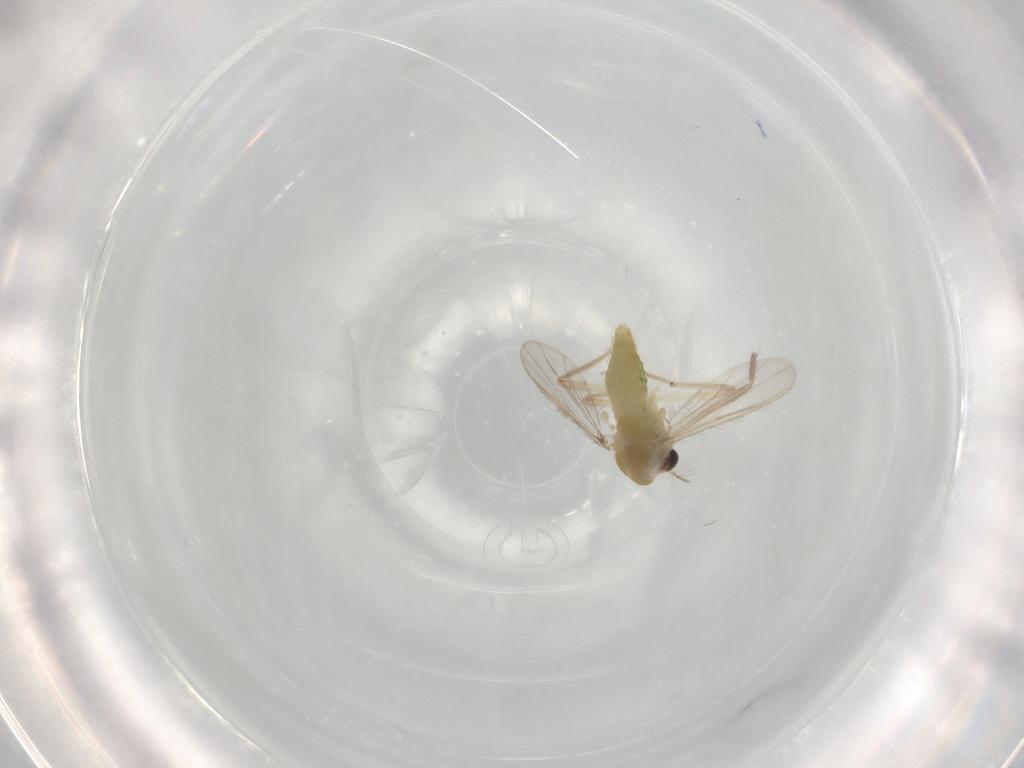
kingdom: Animalia
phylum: Arthropoda
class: Insecta
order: Diptera
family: Chironomidae
